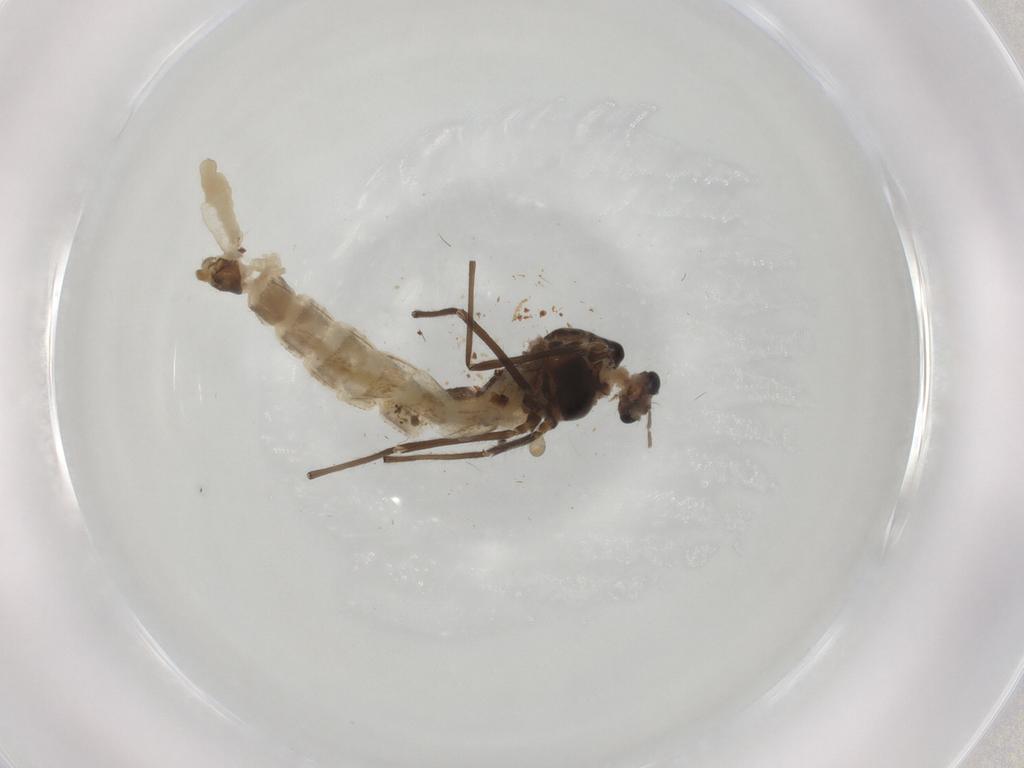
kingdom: Animalia
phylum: Arthropoda
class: Insecta
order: Diptera
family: Chironomidae
